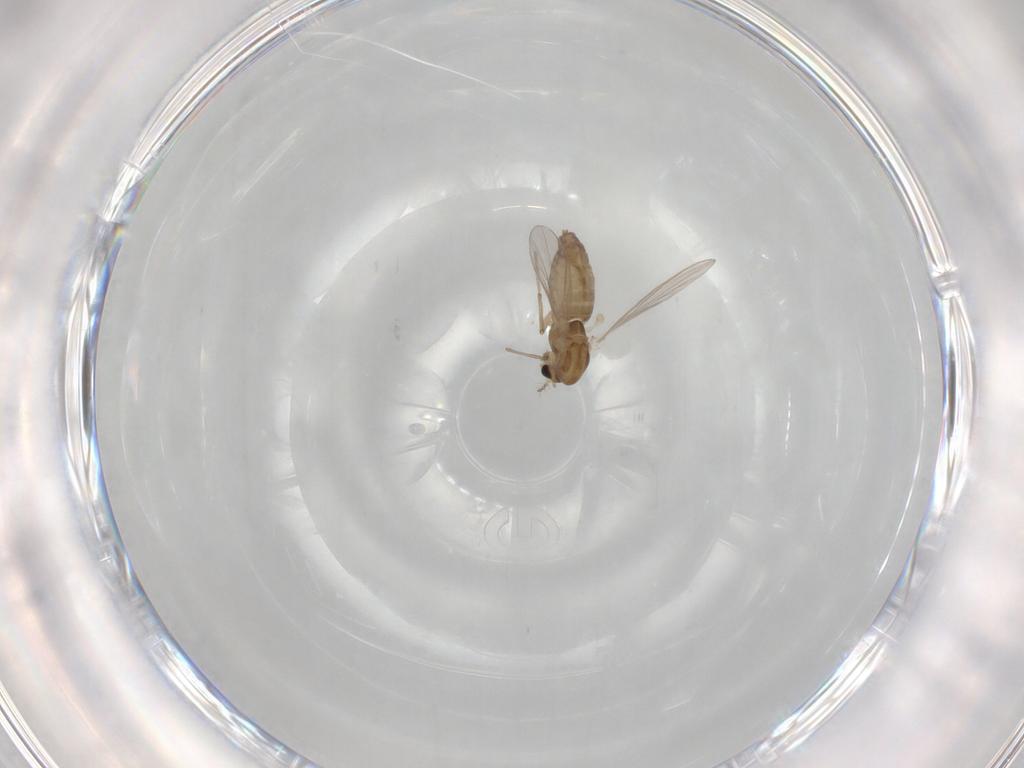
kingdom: Animalia
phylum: Arthropoda
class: Insecta
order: Diptera
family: Chironomidae
